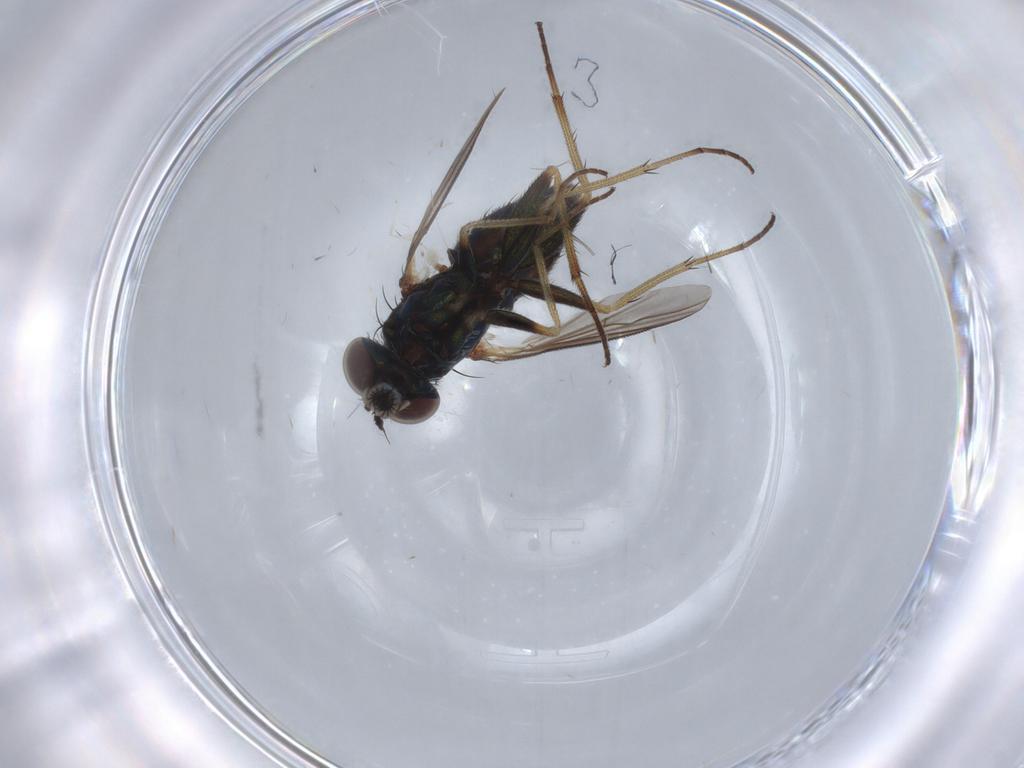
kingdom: Animalia
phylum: Arthropoda
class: Insecta
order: Diptera
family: Dolichopodidae
